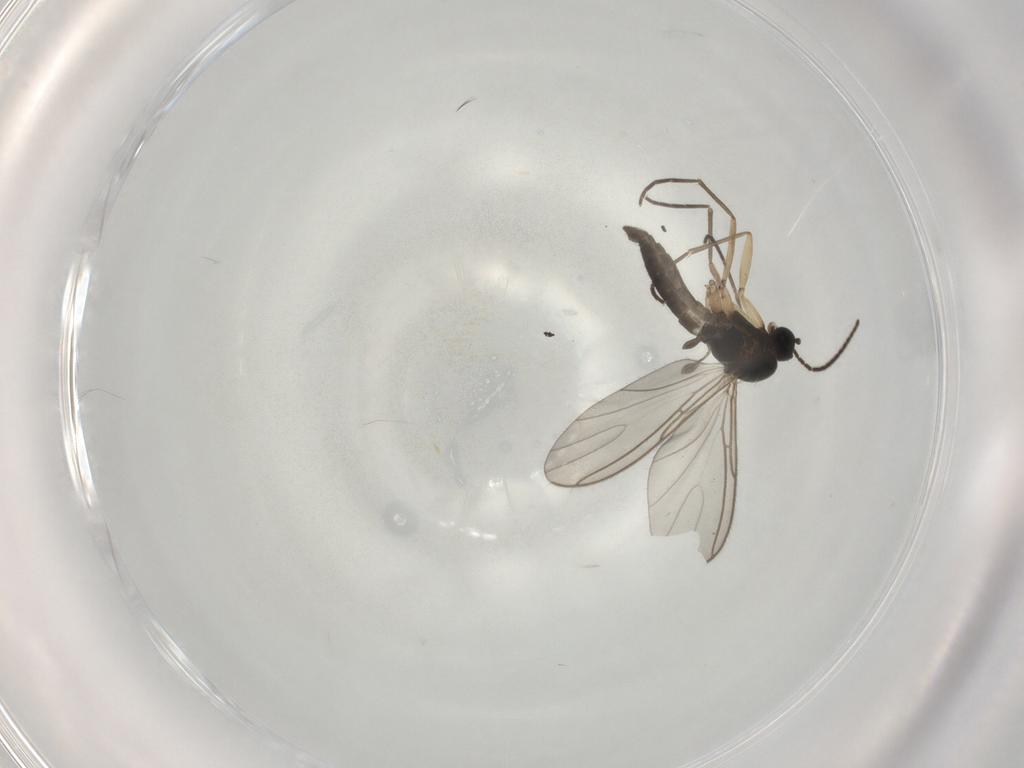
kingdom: Animalia
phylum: Arthropoda
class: Insecta
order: Diptera
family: Sciaridae
